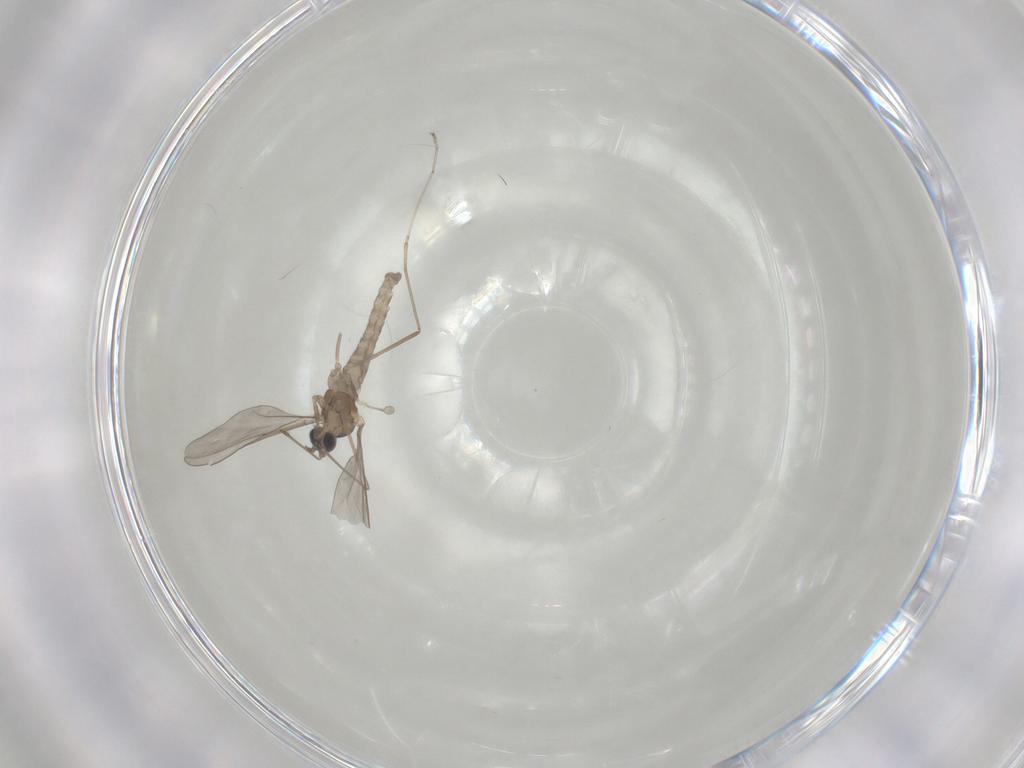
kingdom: Animalia
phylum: Arthropoda
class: Insecta
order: Diptera
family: Cecidomyiidae
